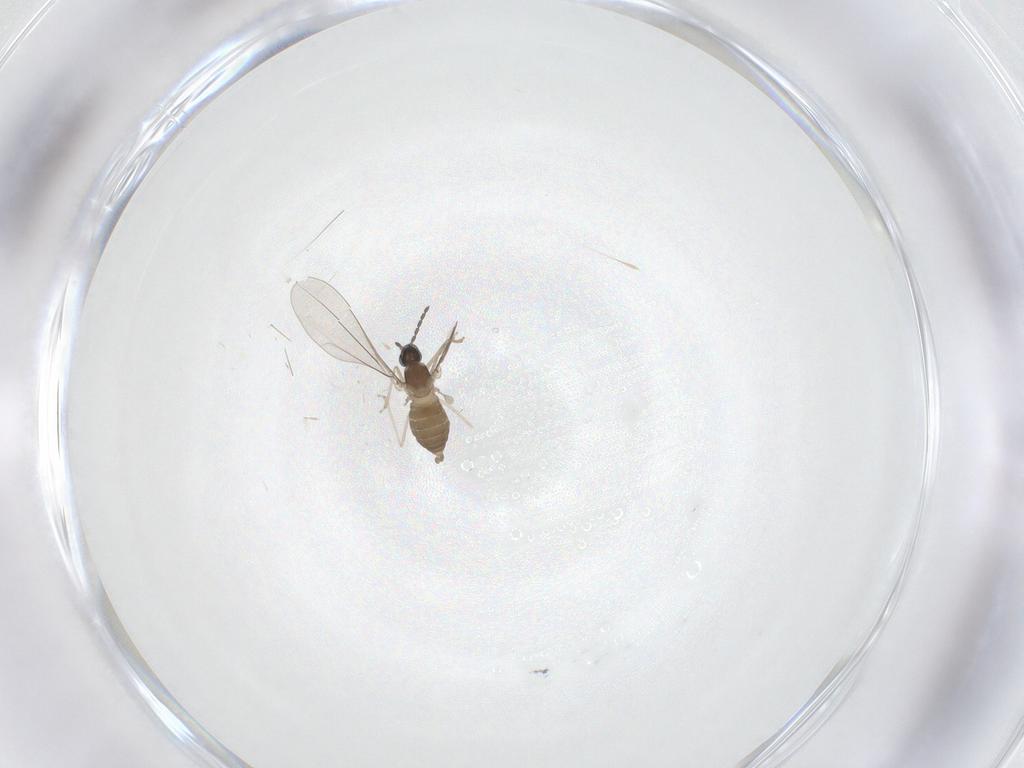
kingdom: Animalia
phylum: Arthropoda
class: Insecta
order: Diptera
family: Cecidomyiidae
